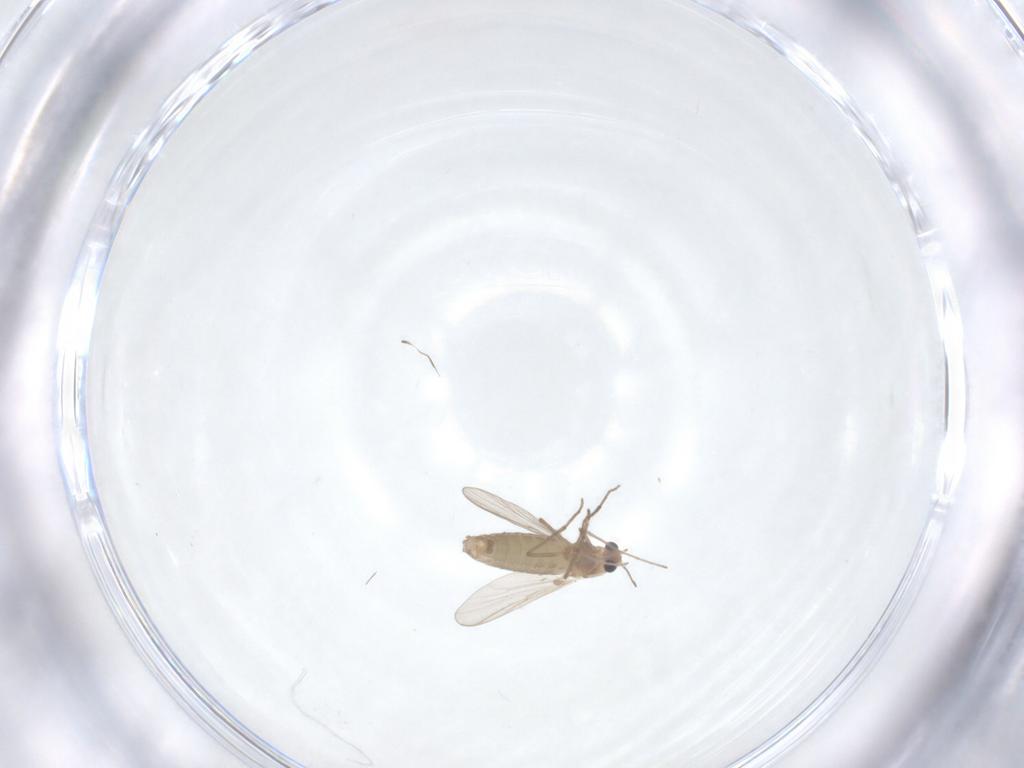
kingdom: Animalia
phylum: Arthropoda
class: Insecta
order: Diptera
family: Chironomidae
